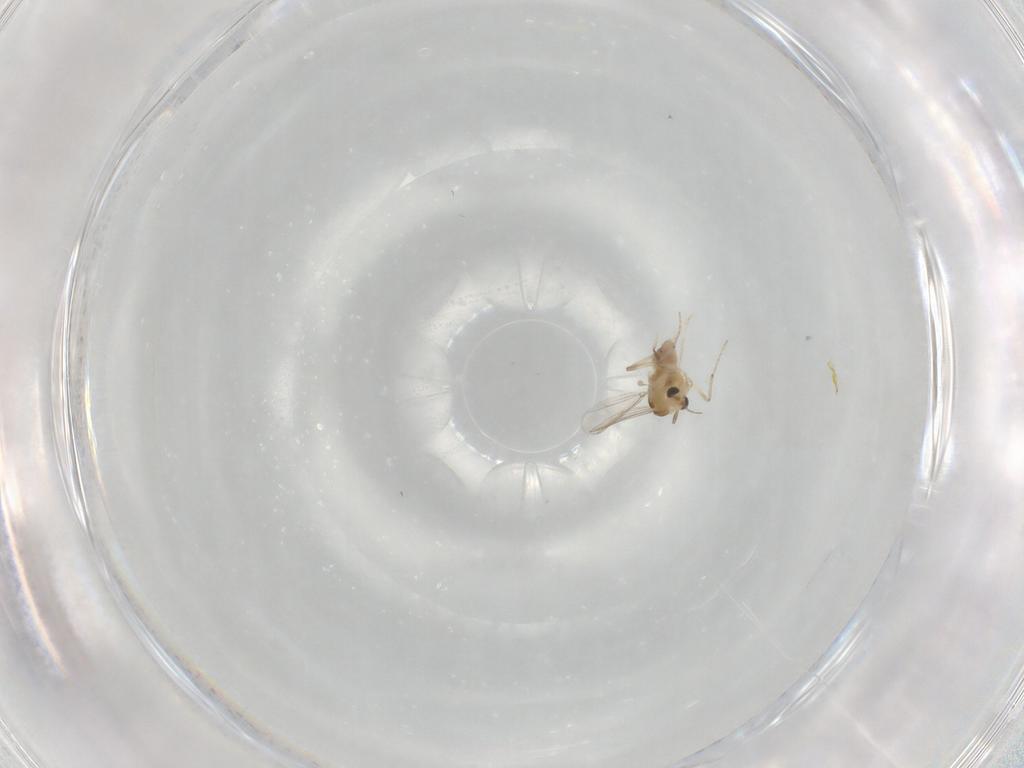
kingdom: Animalia
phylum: Arthropoda
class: Insecta
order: Diptera
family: Chironomidae
